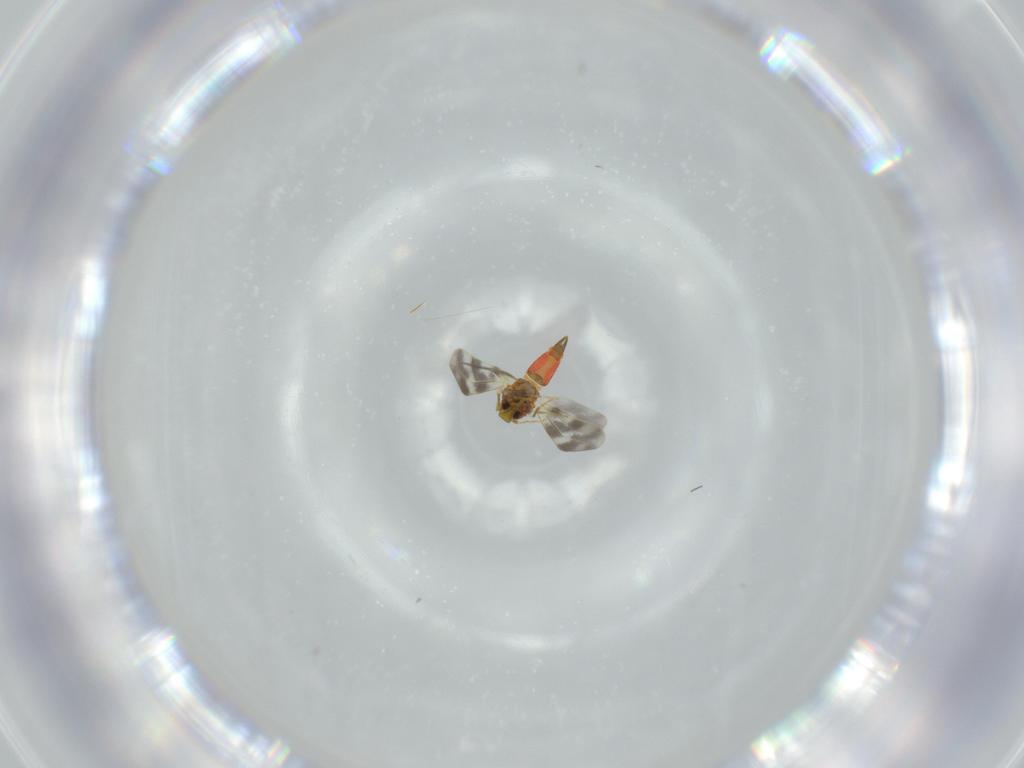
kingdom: Animalia
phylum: Arthropoda
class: Insecta
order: Hemiptera
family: Aleyrodidae
